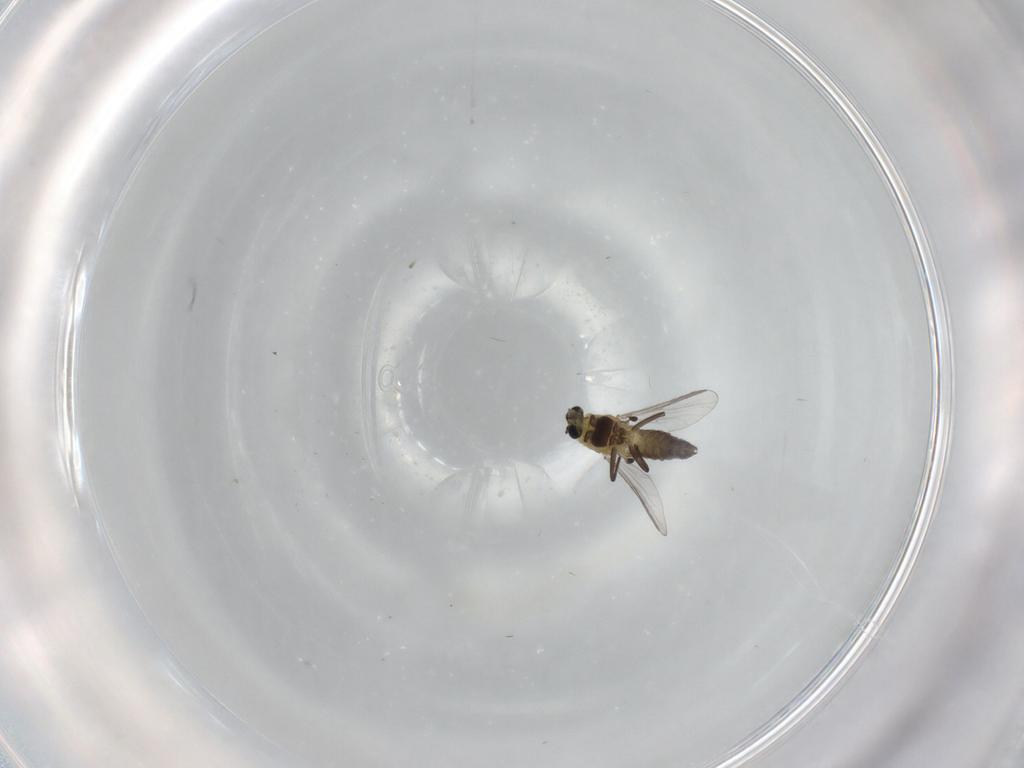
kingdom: Animalia
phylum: Arthropoda
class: Insecta
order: Diptera
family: Chironomidae
